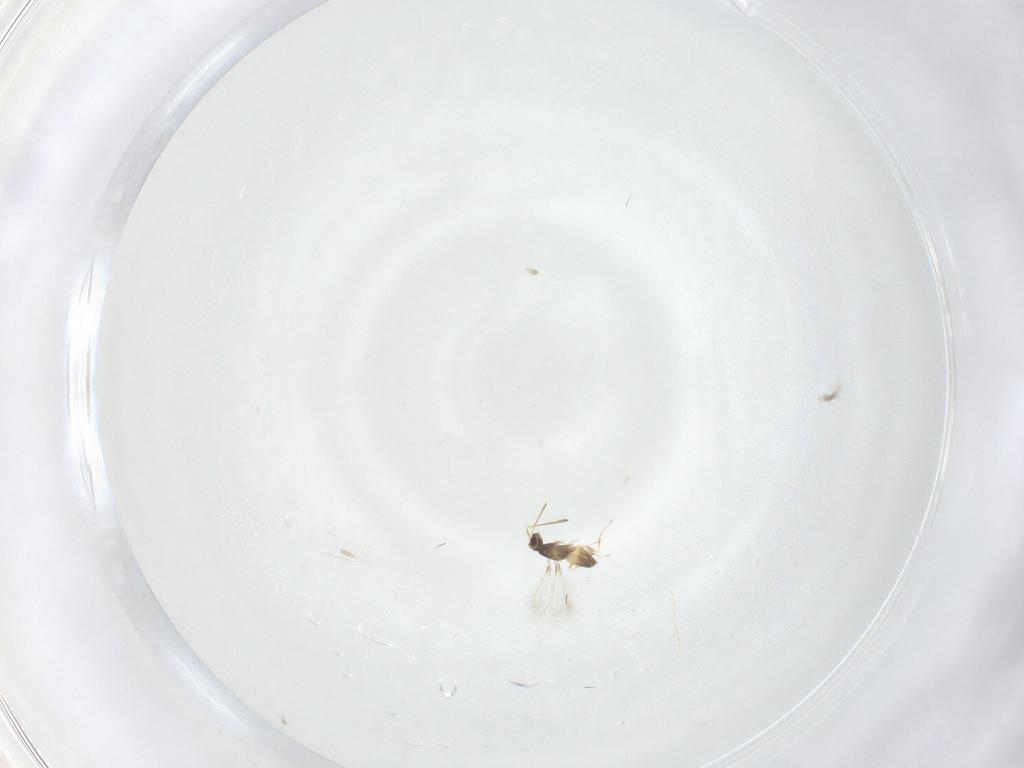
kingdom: Animalia
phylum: Arthropoda
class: Insecta
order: Hymenoptera
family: Mymaridae
